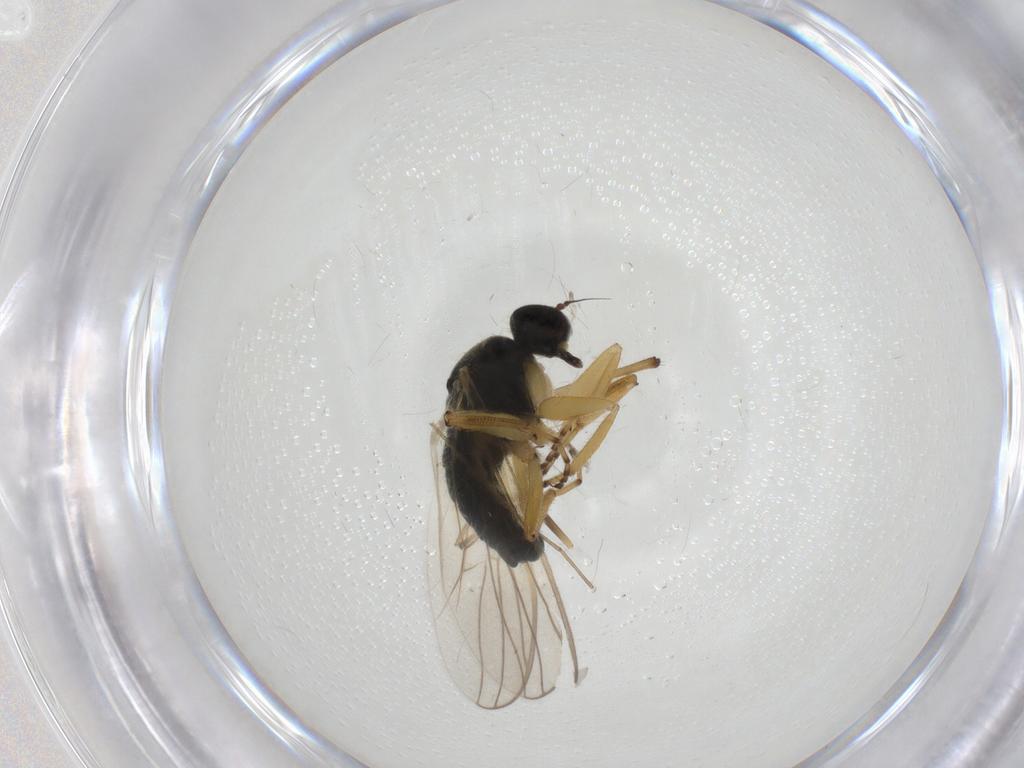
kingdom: Animalia
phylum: Arthropoda
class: Insecta
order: Diptera
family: Hybotidae
